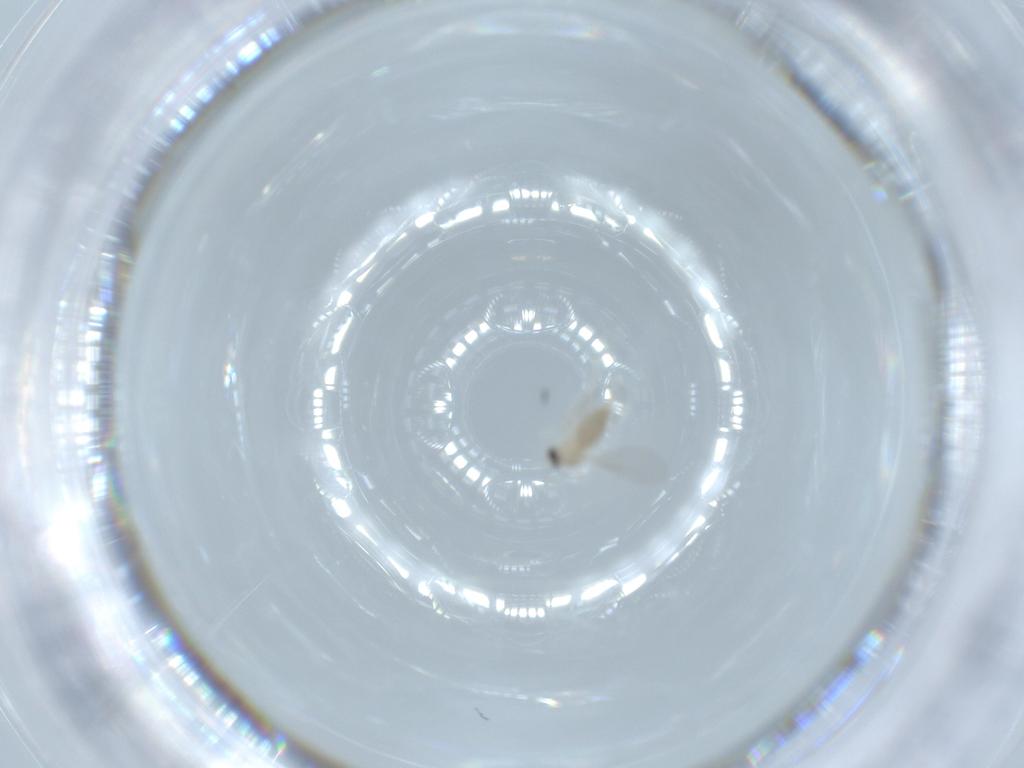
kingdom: Animalia
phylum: Arthropoda
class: Insecta
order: Diptera
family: Cecidomyiidae
